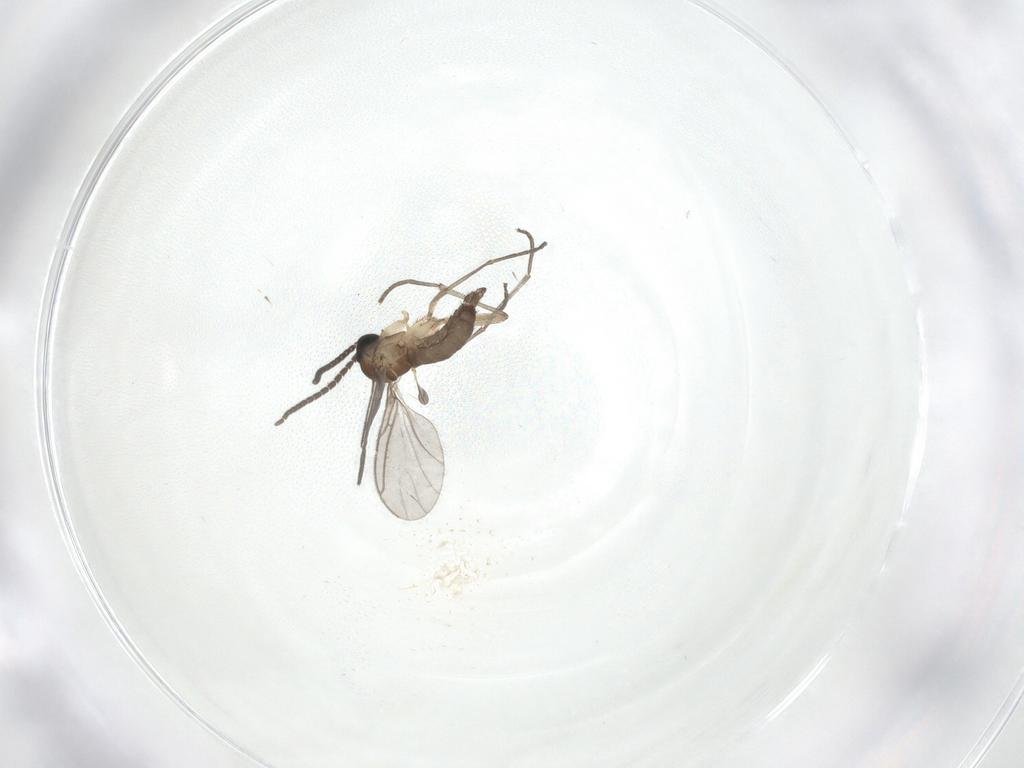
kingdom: Animalia
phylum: Arthropoda
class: Insecta
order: Diptera
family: Sciaridae
